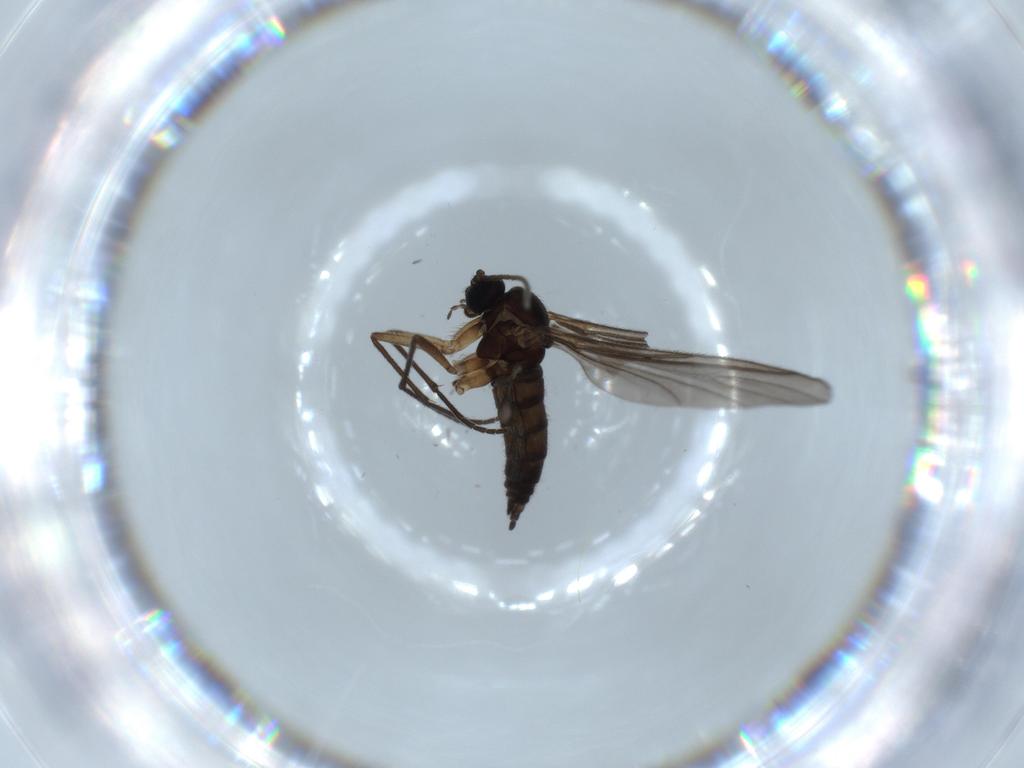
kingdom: Animalia
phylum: Arthropoda
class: Insecta
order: Diptera
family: Sciaridae
